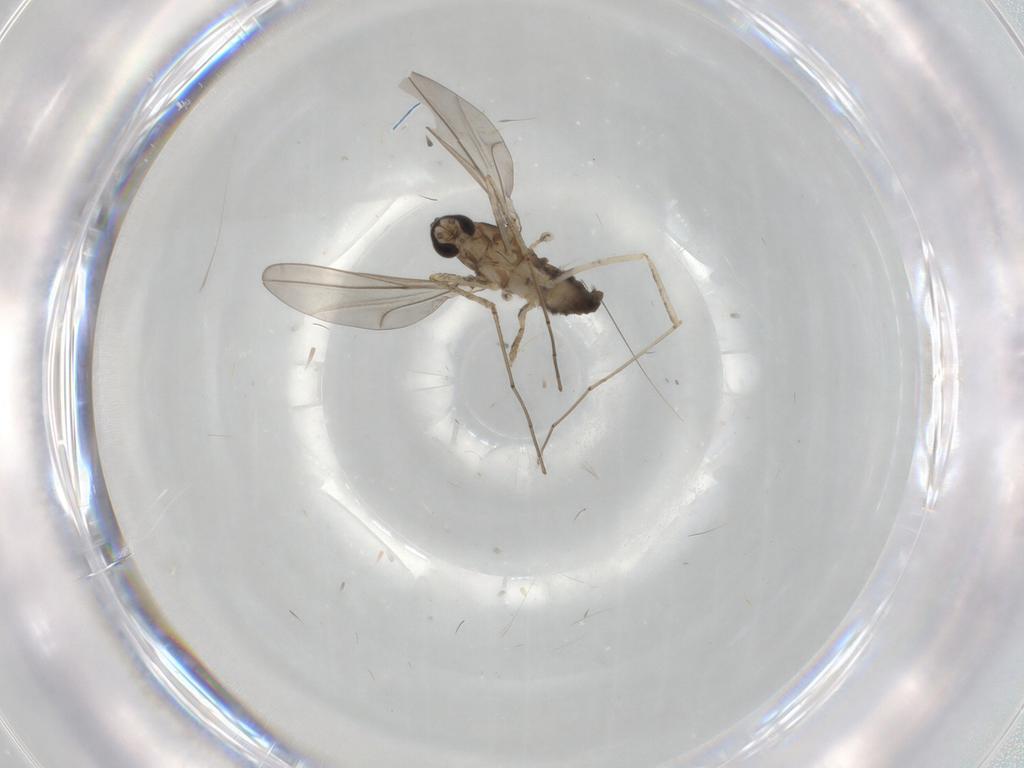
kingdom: Animalia
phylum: Arthropoda
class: Insecta
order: Diptera
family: Cecidomyiidae
